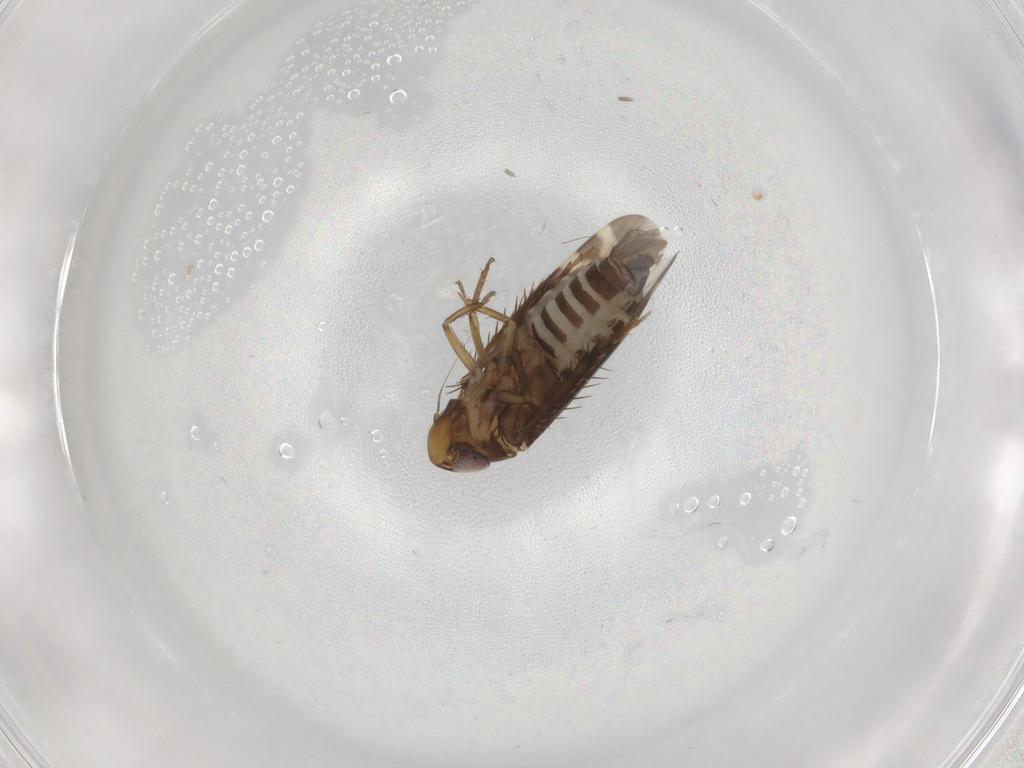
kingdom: Animalia
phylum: Arthropoda
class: Insecta
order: Hemiptera
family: Cicadellidae
